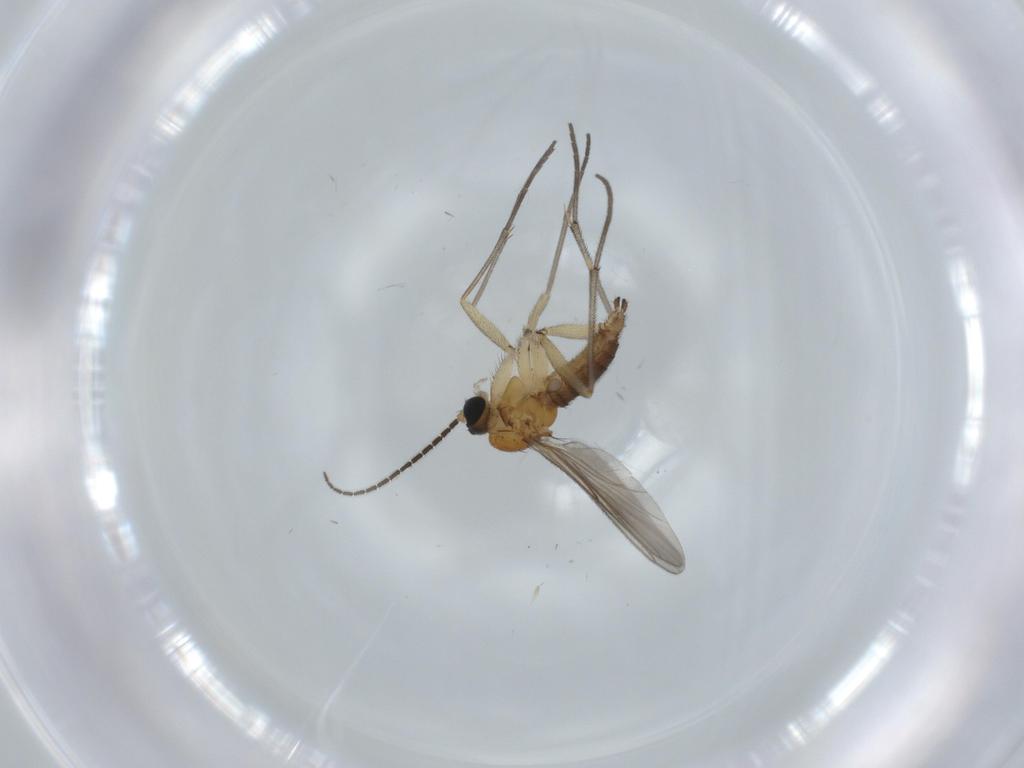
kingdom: Animalia
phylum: Arthropoda
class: Insecta
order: Diptera
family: Sciaridae
